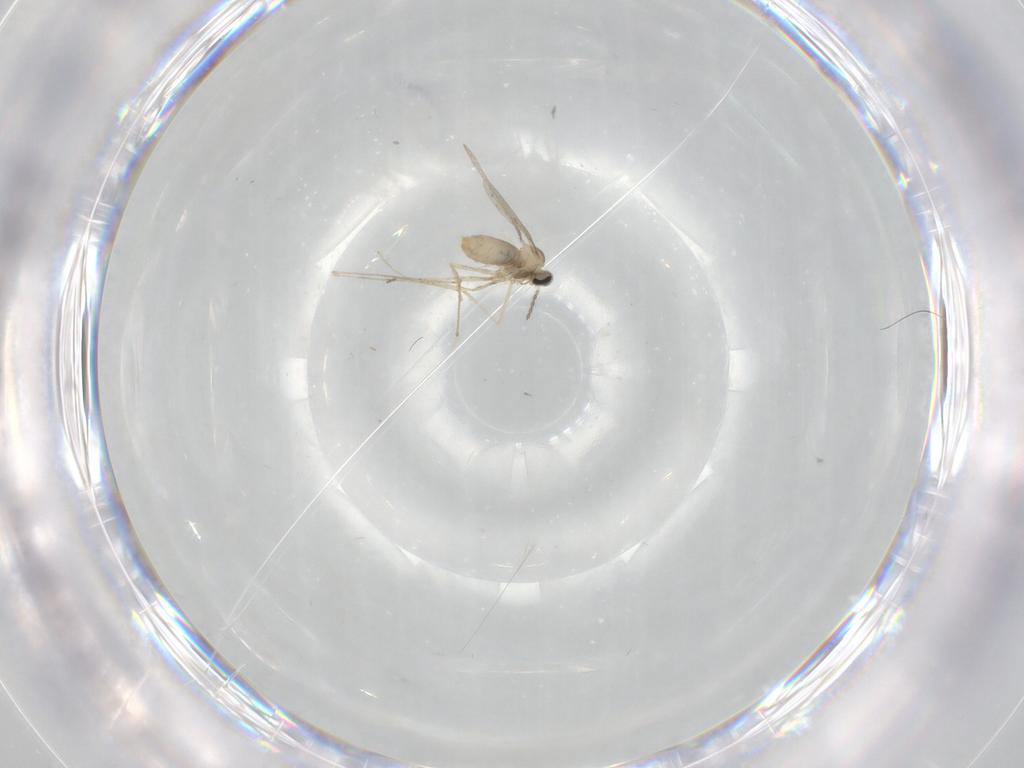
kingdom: Animalia
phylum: Arthropoda
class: Insecta
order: Diptera
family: Cecidomyiidae
